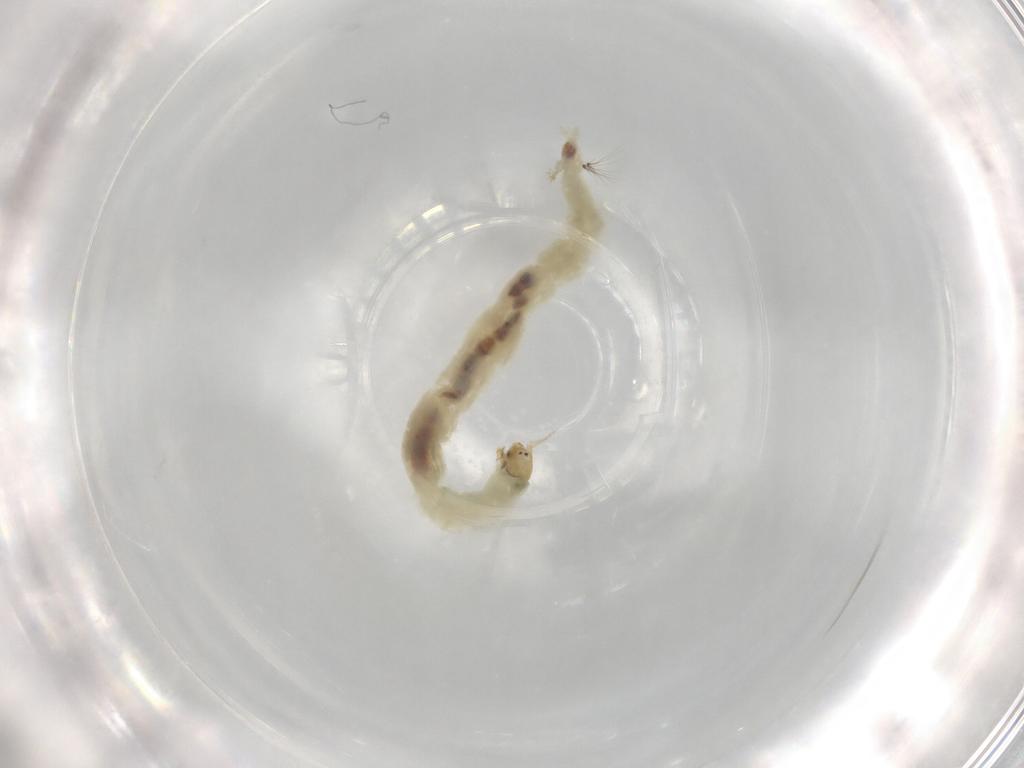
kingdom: Animalia
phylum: Arthropoda
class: Insecta
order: Diptera
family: Chironomidae
